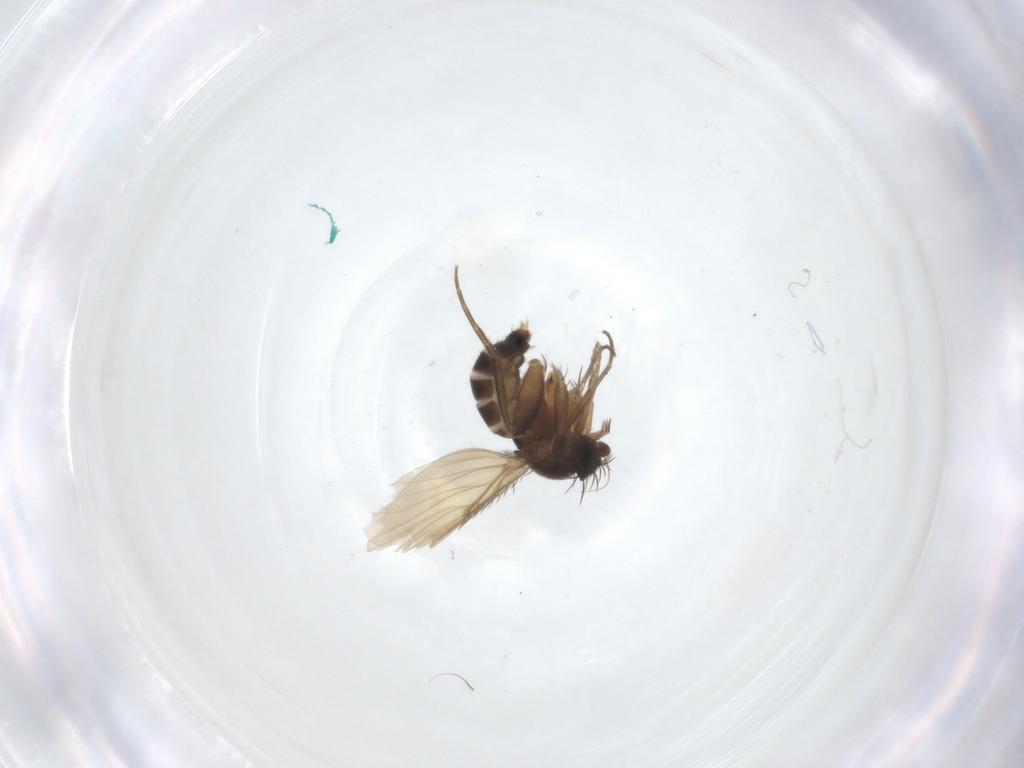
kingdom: Animalia
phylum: Arthropoda
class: Insecta
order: Diptera
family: Phoridae
